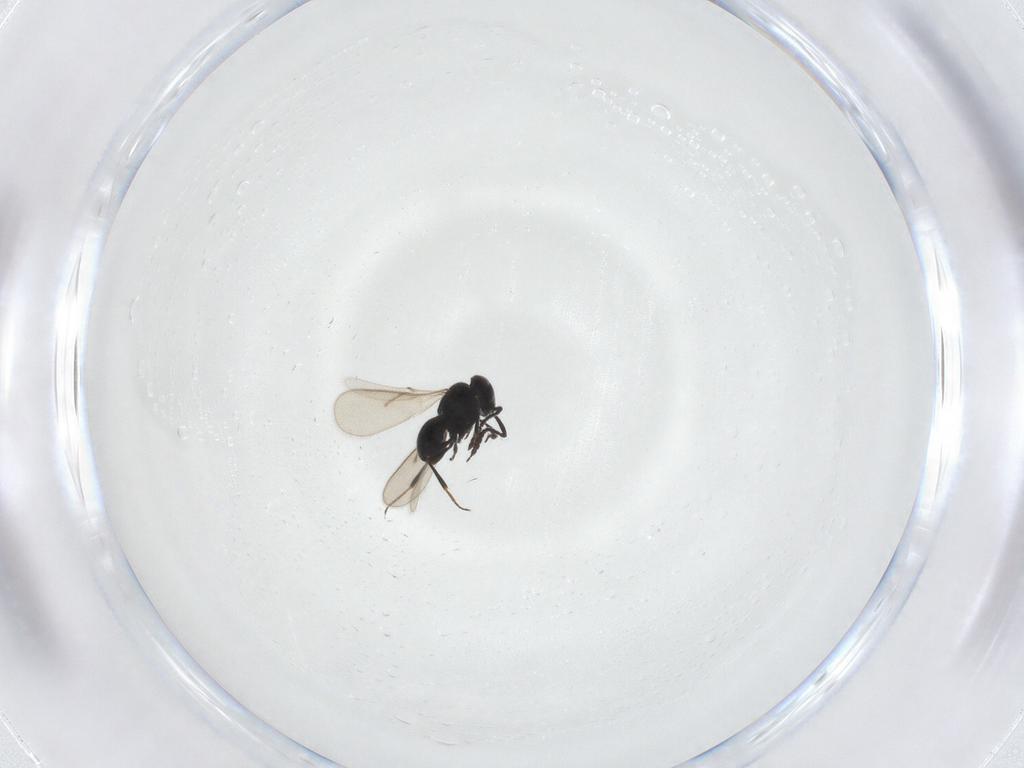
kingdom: Animalia
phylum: Arthropoda
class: Insecta
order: Hymenoptera
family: Scelionidae
